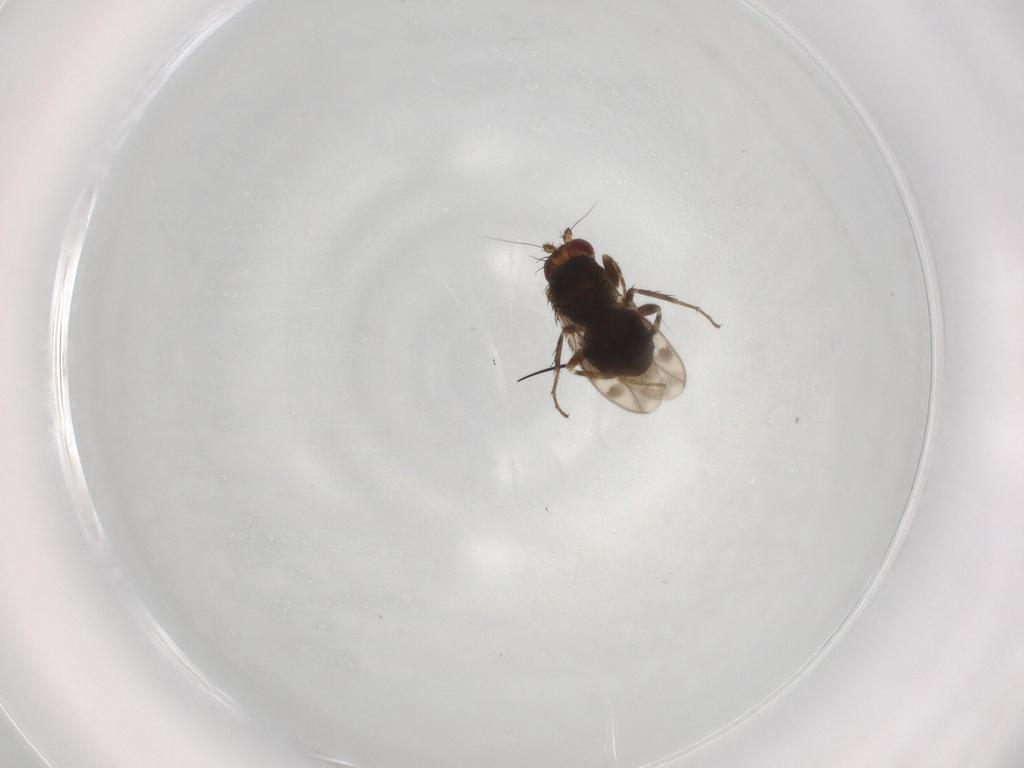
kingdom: Animalia
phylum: Arthropoda
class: Insecta
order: Diptera
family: Sphaeroceridae
